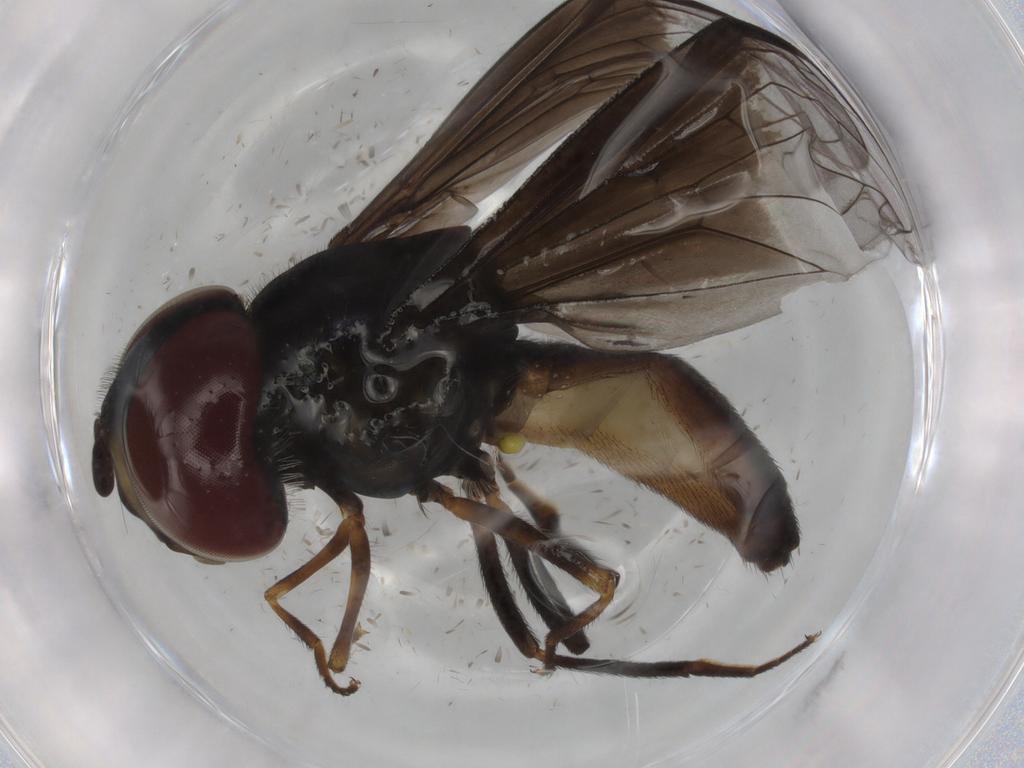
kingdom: Animalia
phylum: Arthropoda
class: Insecta
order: Diptera
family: Syrphidae
